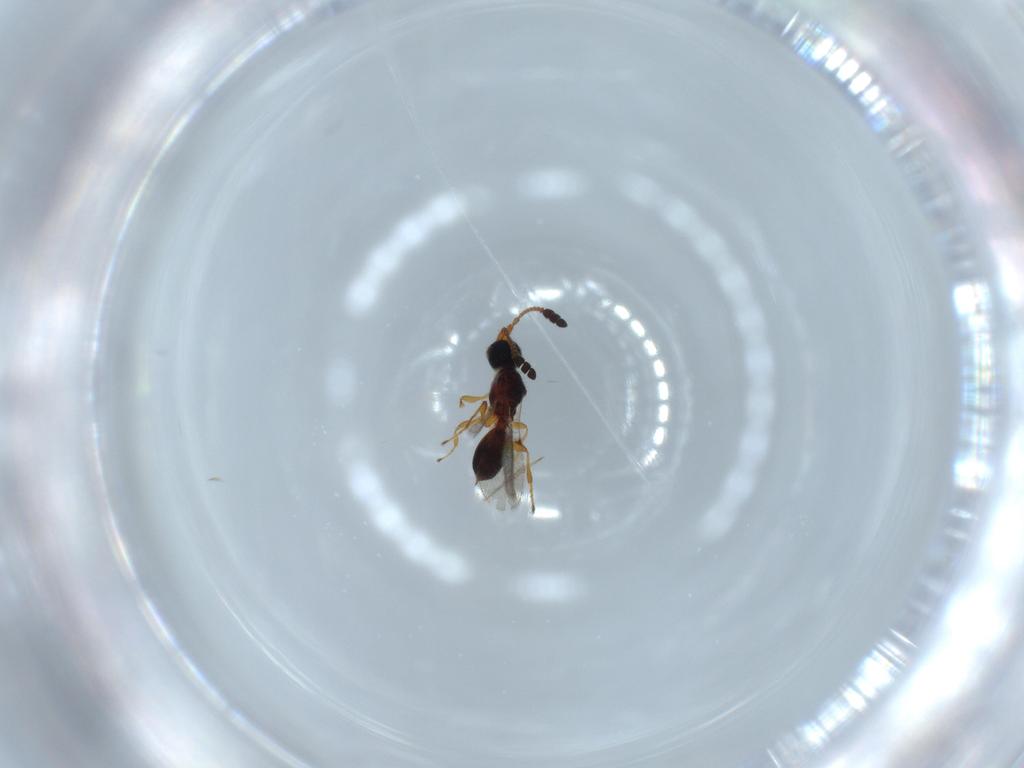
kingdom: Animalia
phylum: Arthropoda
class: Insecta
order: Hymenoptera
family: Diapriidae
